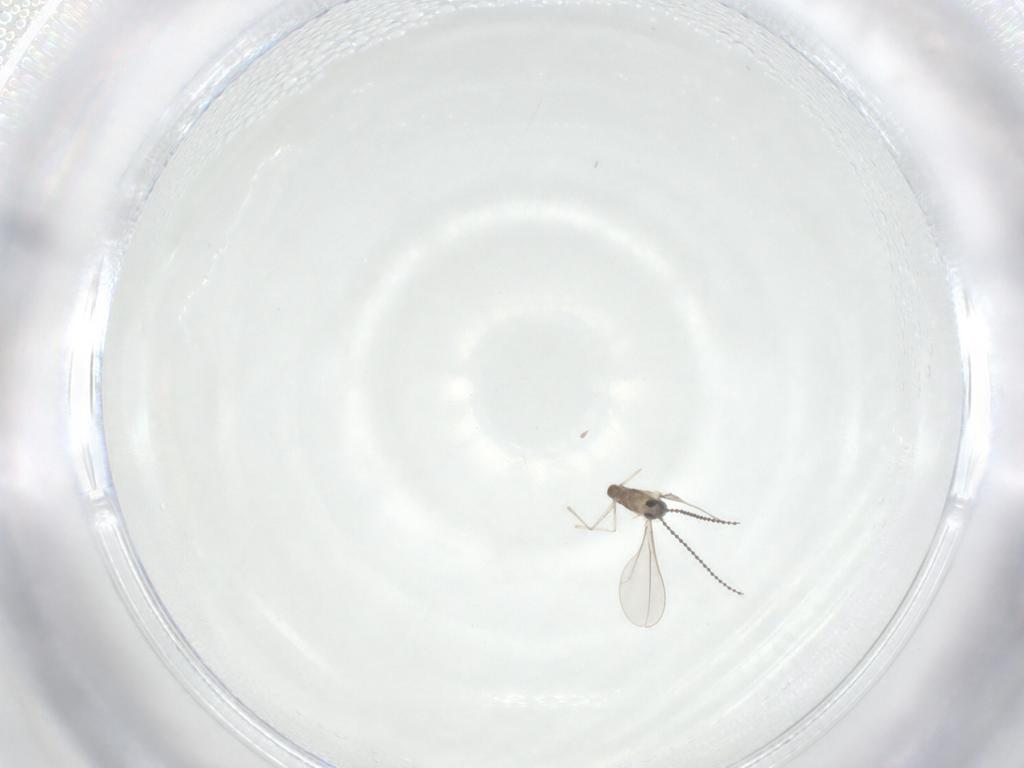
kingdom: Animalia
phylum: Arthropoda
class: Insecta
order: Diptera
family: Cecidomyiidae
